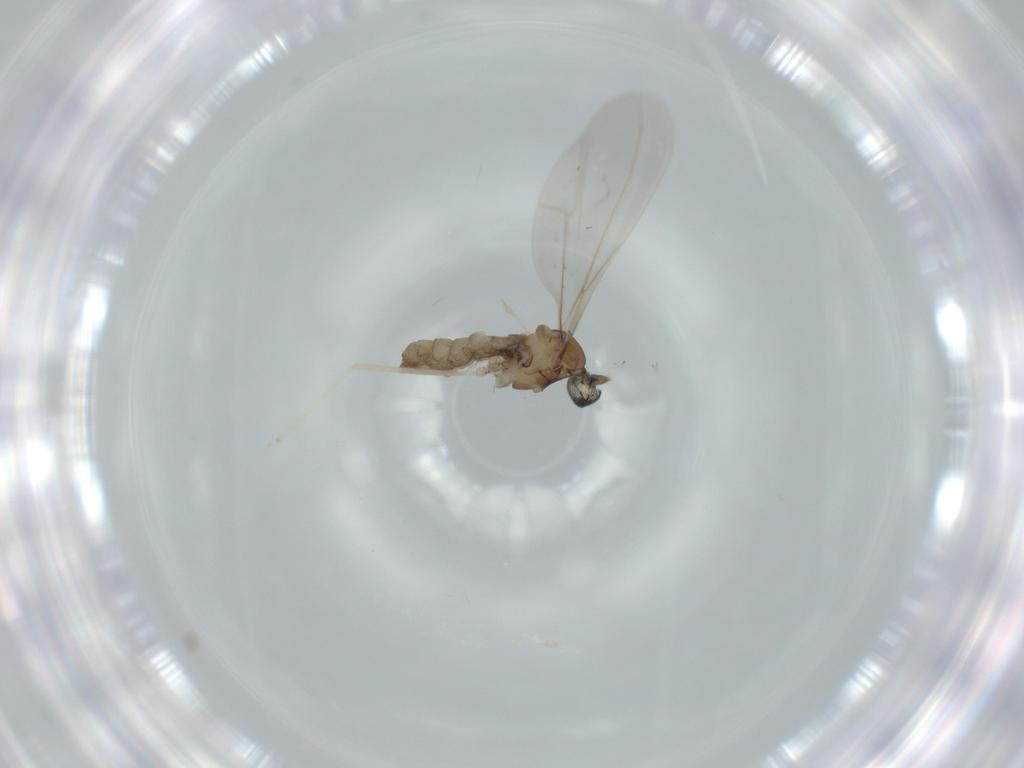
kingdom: Animalia
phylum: Arthropoda
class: Insecta
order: Diptera
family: Cecidomyiidae
